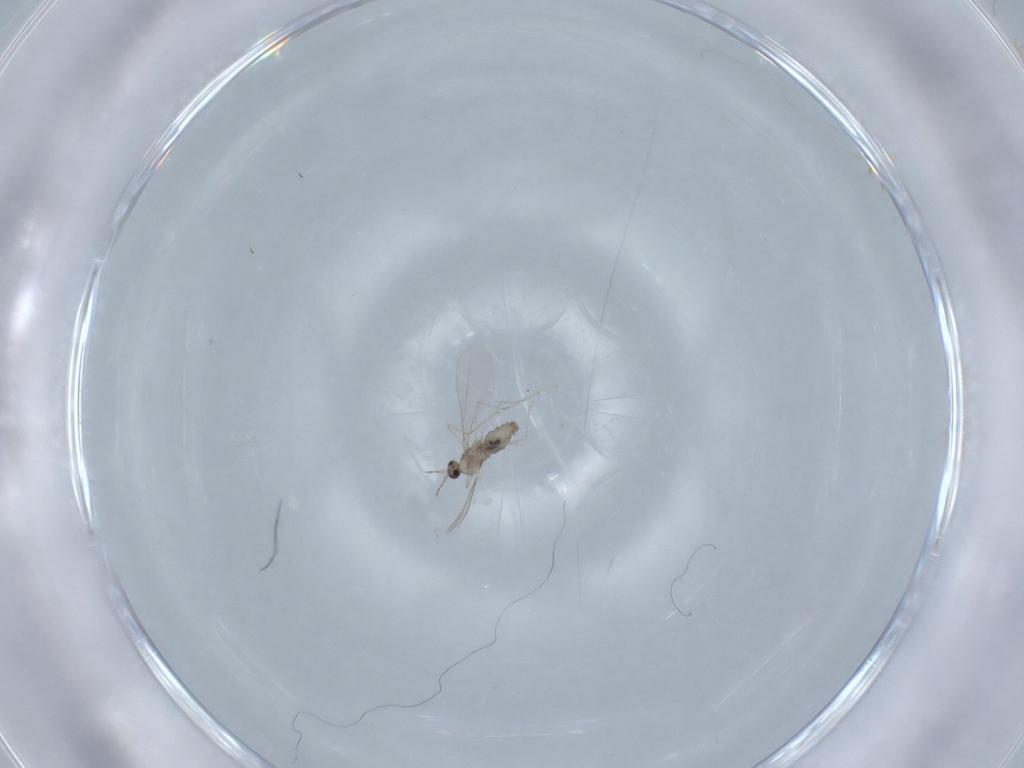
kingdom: Animalia
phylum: Arthropoda
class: Insecta
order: Diptera
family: Cecidomyiidae
